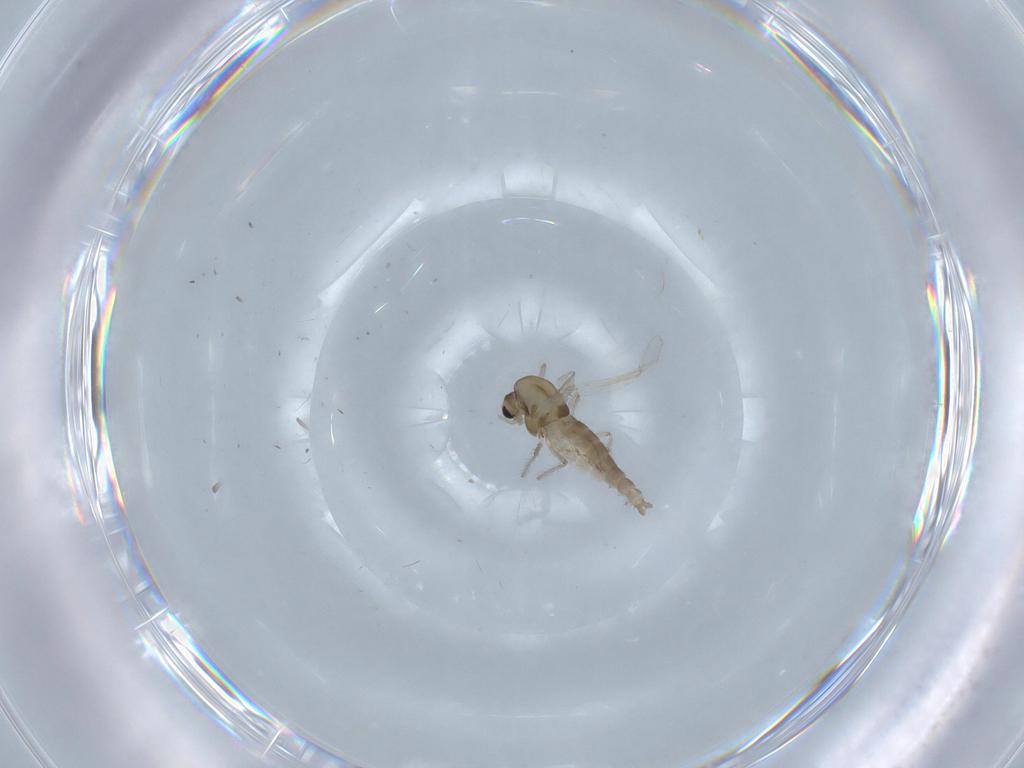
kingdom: Animalia
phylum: Arthropoda
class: Insecta
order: Diptera
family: Chironomidae
